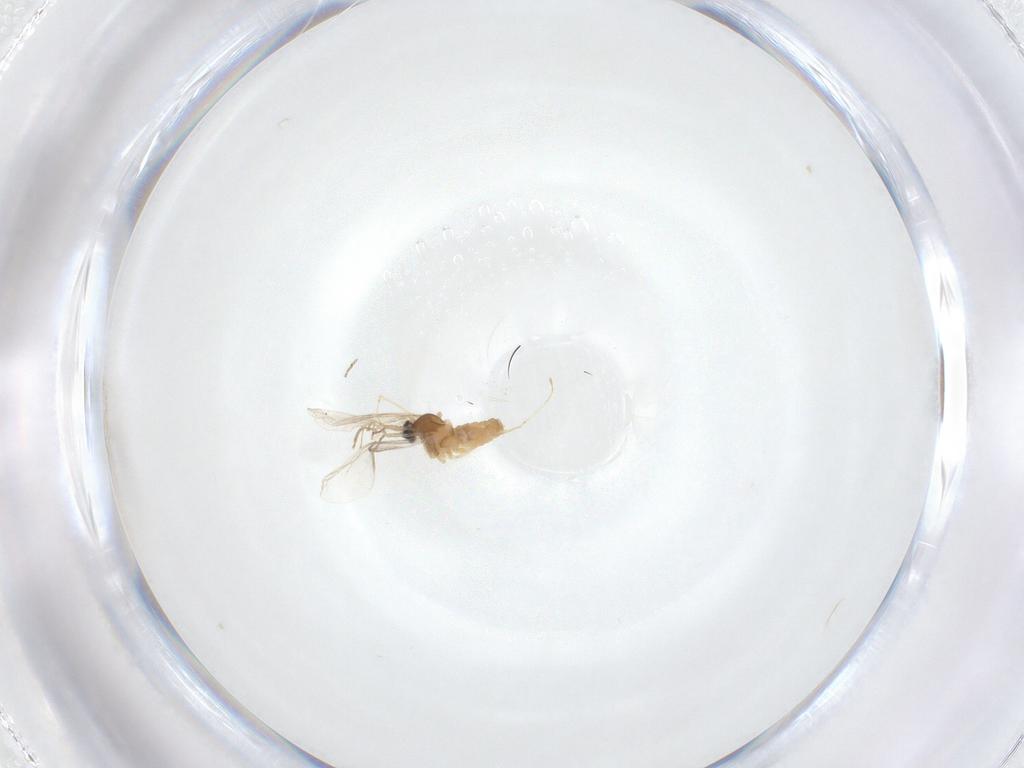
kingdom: Animalia
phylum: Arthropoda
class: Insecta
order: Diptera
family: Cecidomyiidae
